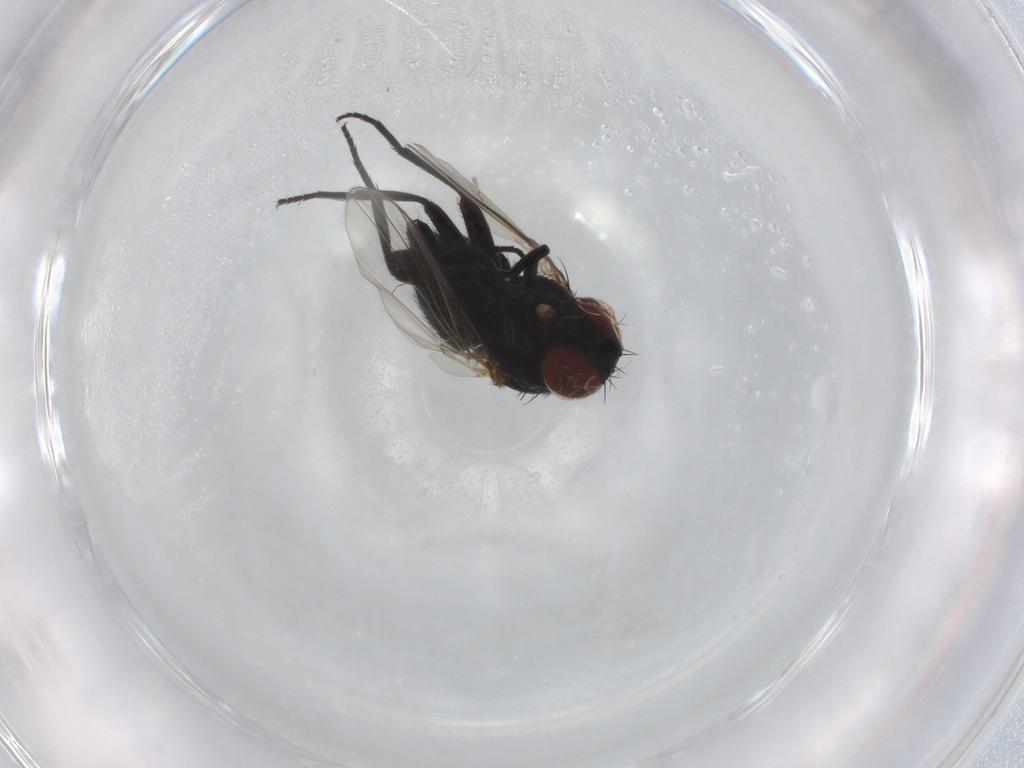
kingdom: Animalia
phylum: Arthropoda
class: Insecta
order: Diptera
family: Agromyzidae
